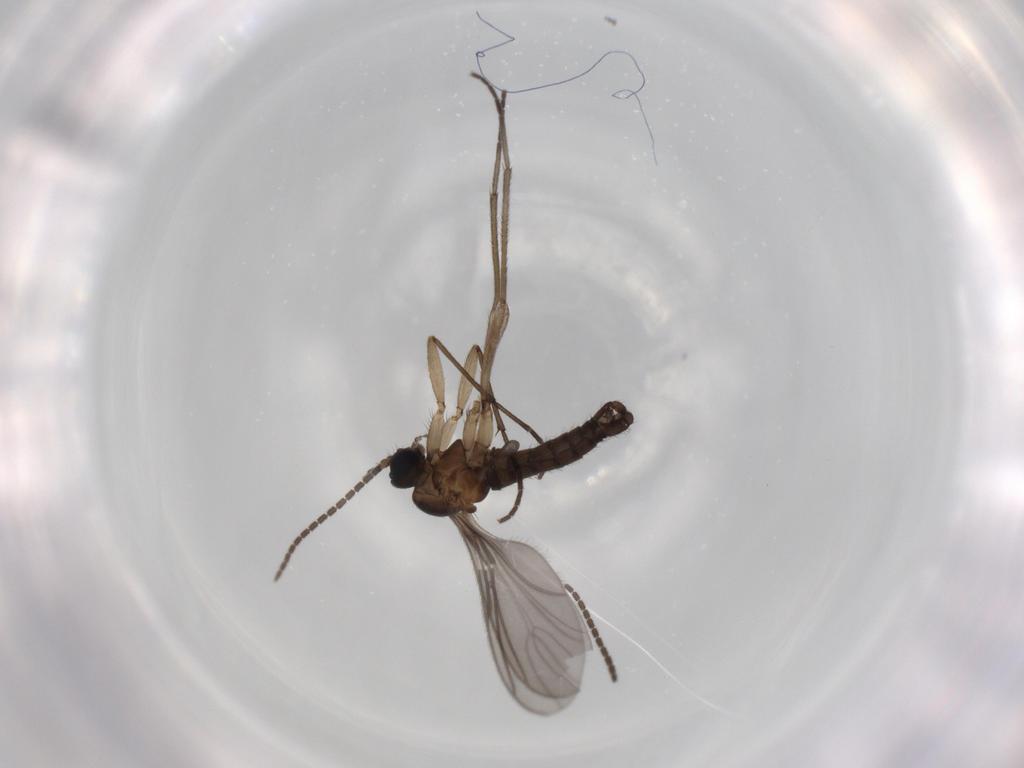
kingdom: Animalia
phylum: Arthropoda
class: Insecta
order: Diptera
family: Sciaridae
